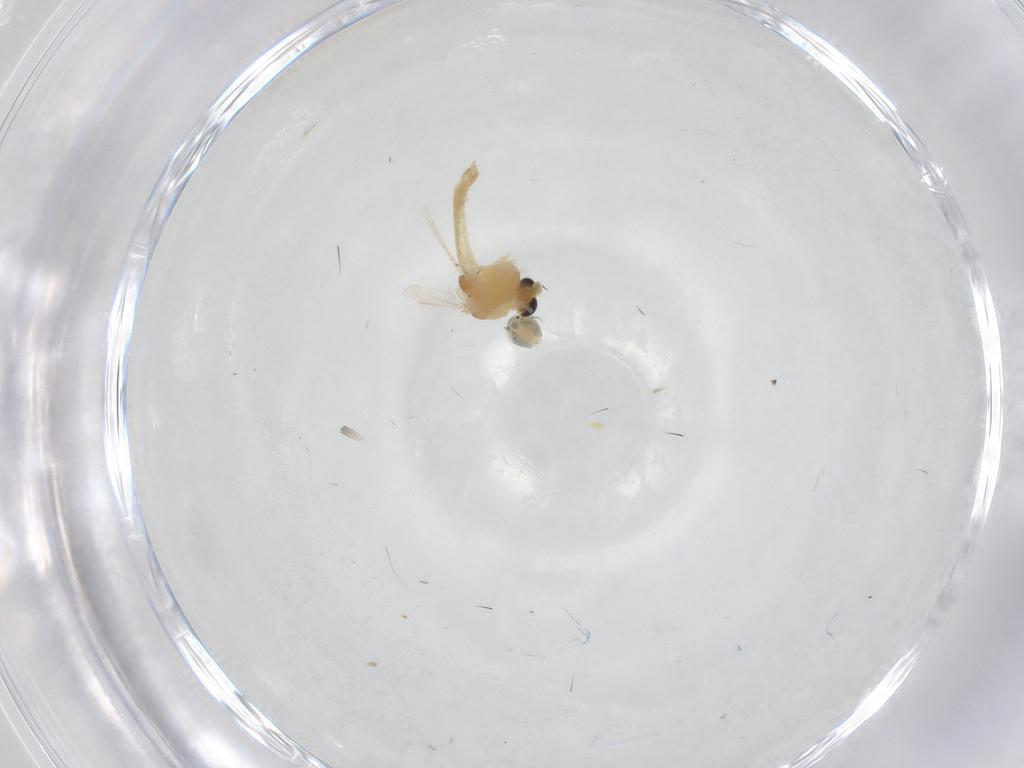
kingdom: Animalia
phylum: Arthropoda
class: Insecta
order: Diptera
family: Chironomidae
